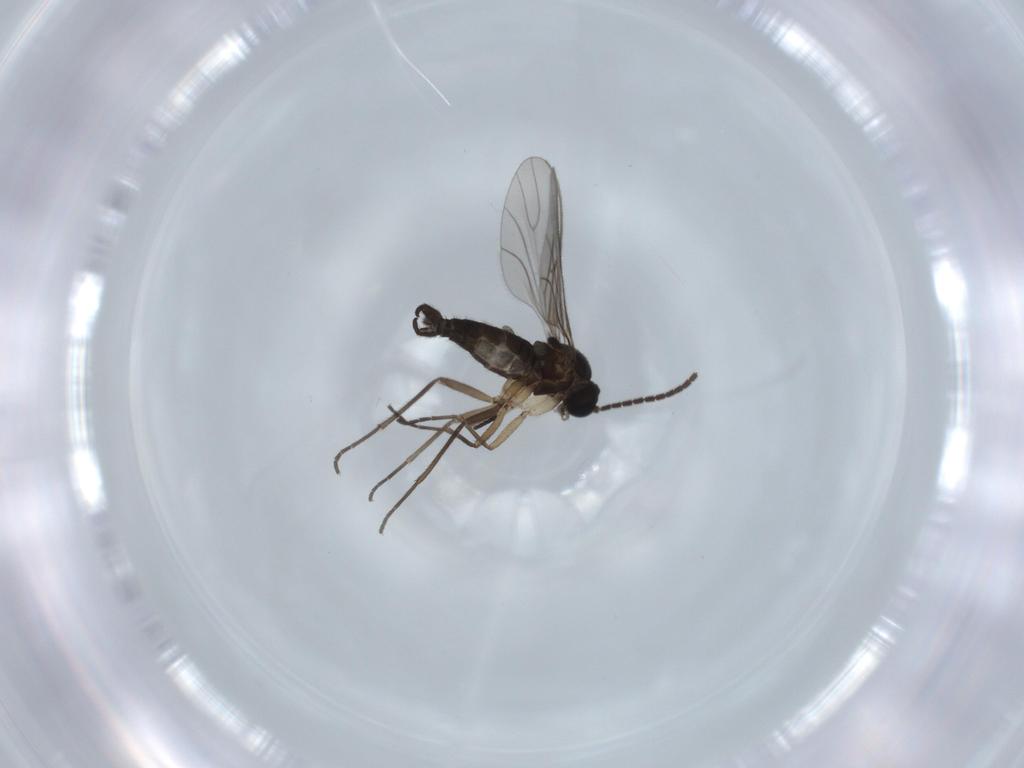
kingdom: Animalia
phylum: Arthropoda
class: Insecta
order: Diptera
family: Sciaridae
